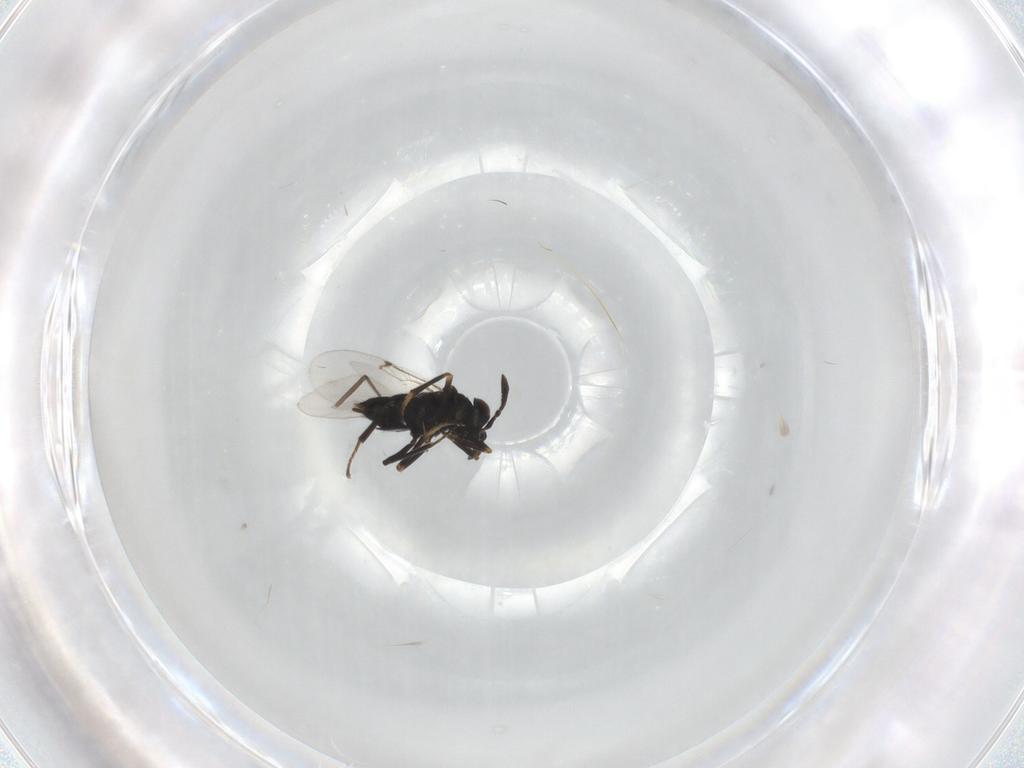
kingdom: Animalia
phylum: Arthropoda
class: Insecta
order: Hymenoptera
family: Encyrtidae
